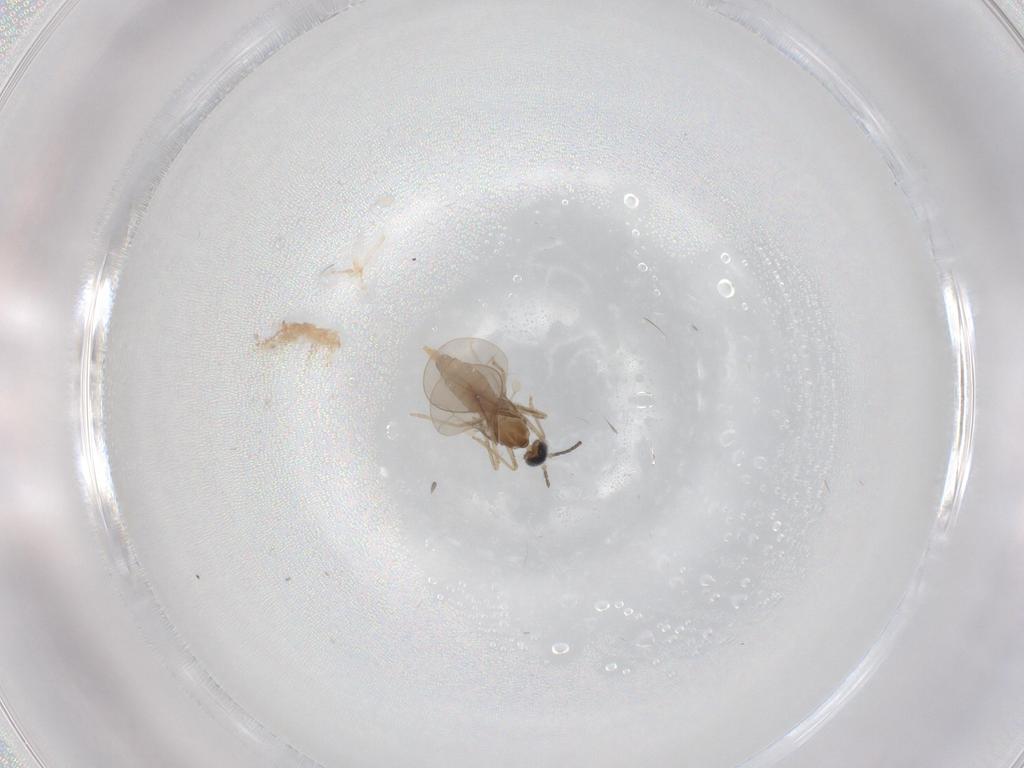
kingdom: Animalia
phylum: Arthropoda
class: Insecta
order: Diptera
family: Cecidomyiidae
